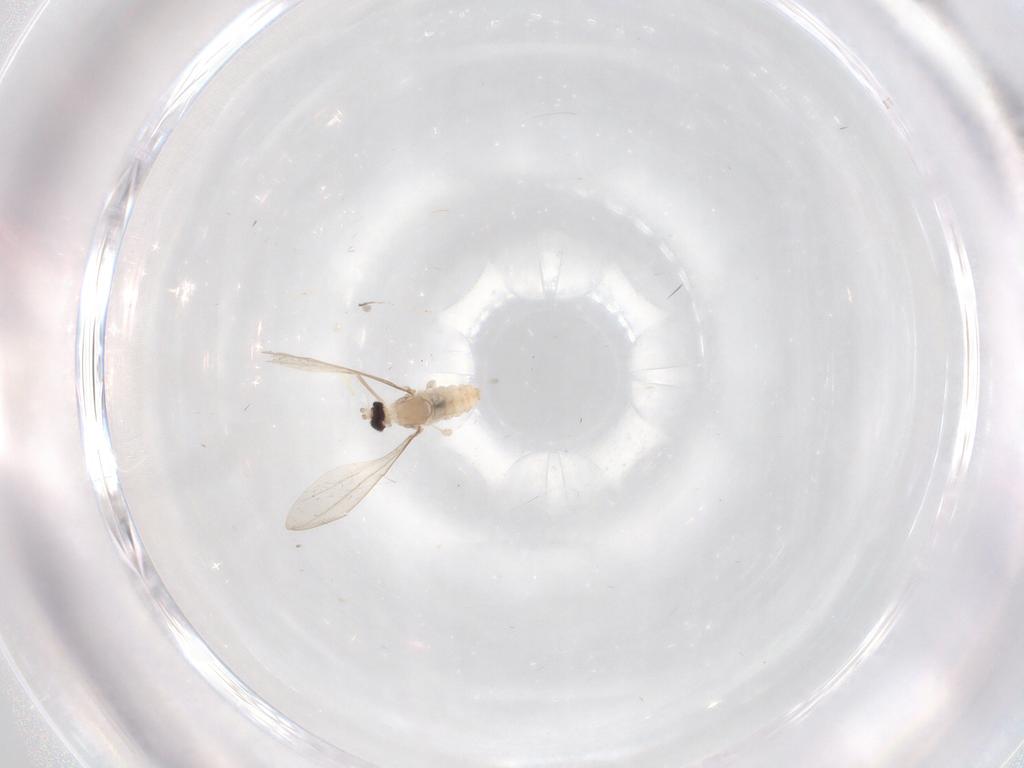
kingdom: Animalia
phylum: Arthropoda
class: Insecta
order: Diptera
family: Cecidomyiidae
